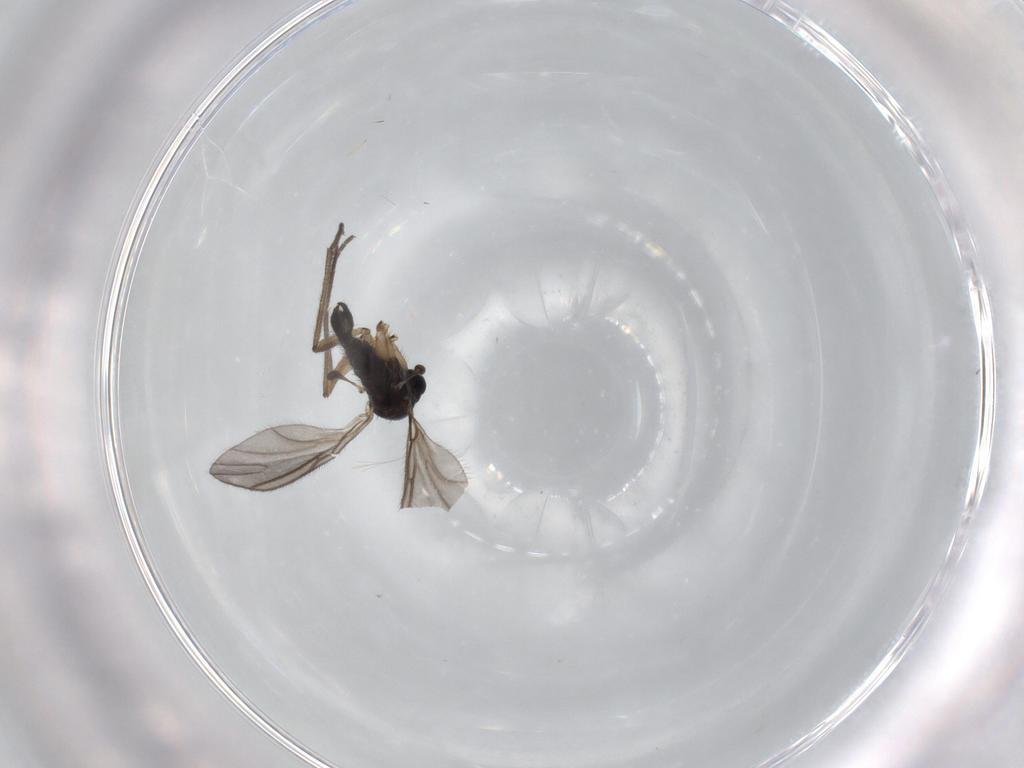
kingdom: Animalia
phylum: Arthropoda
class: Insecta
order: Diptera
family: Sciaridae
